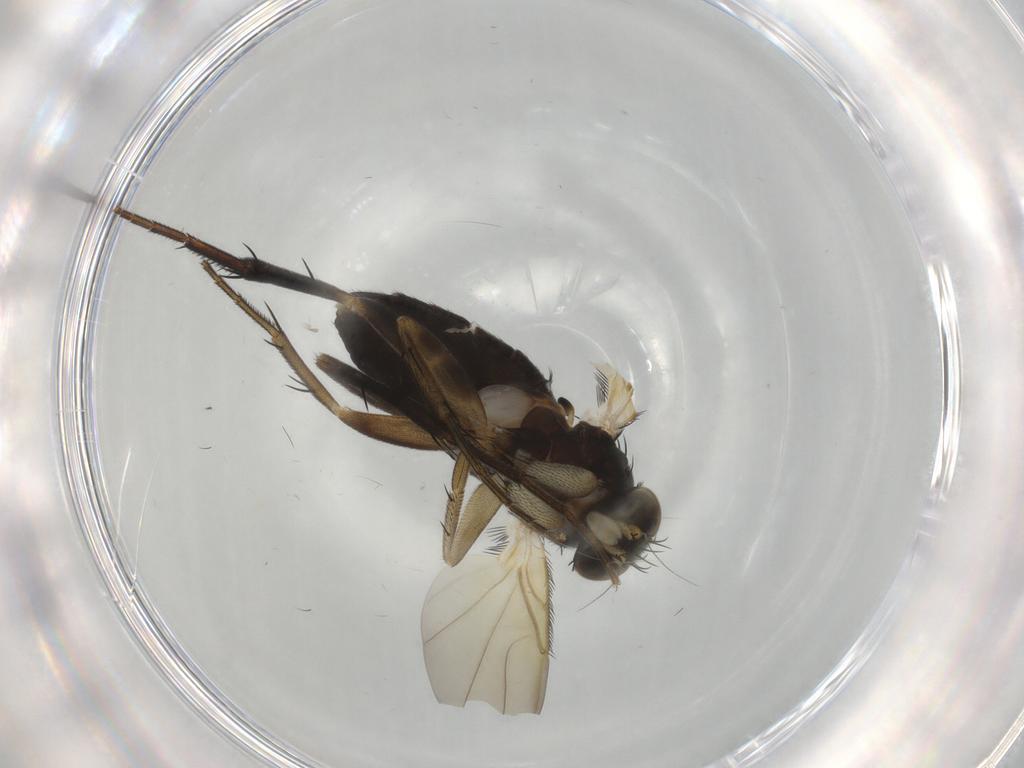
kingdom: Animalia
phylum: Arthropoda
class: Insecta
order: Diptera
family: Phoridae
